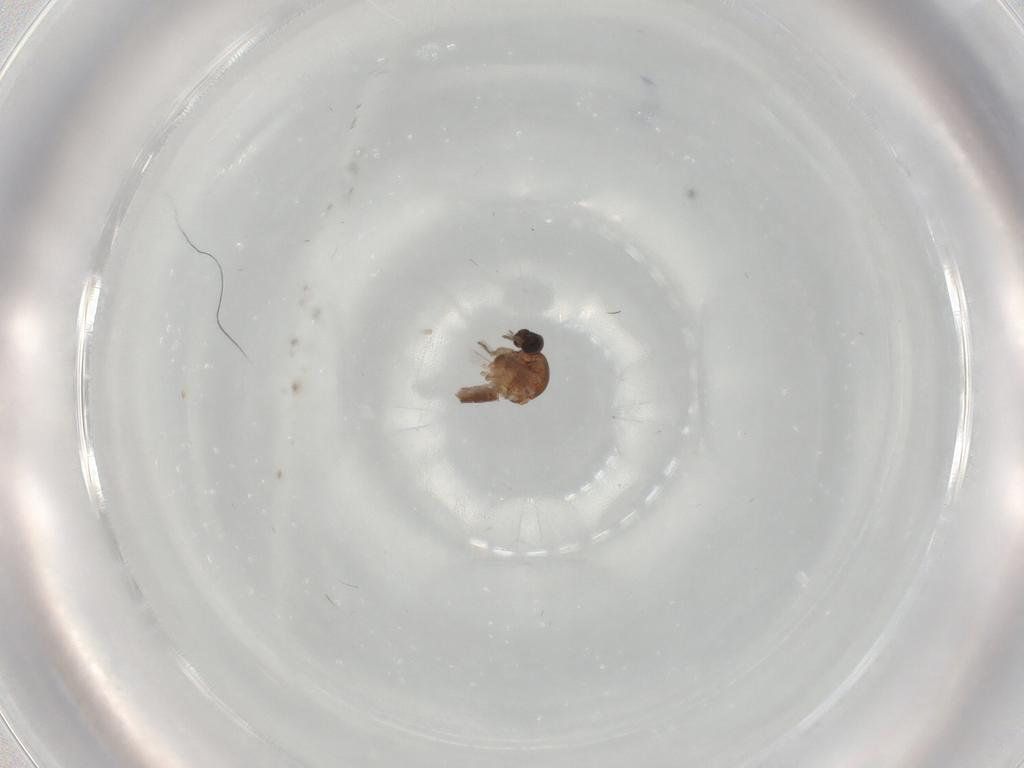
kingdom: Animalia
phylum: Arthropoda
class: Insecta
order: Diptera
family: Ceratopogonidae
